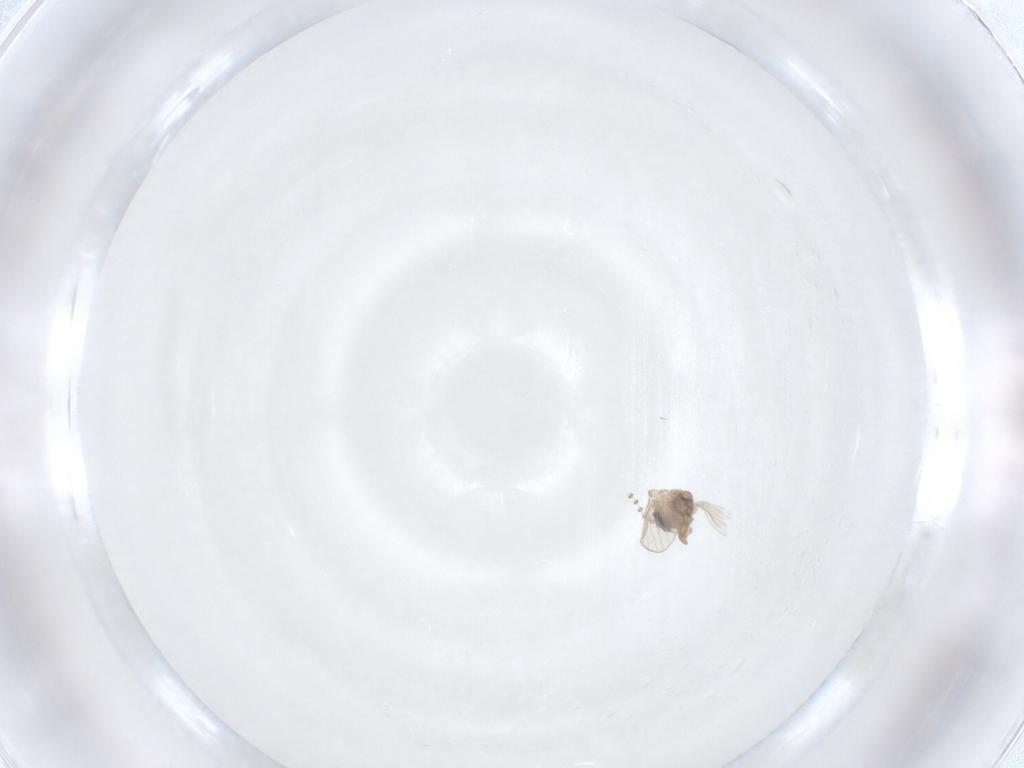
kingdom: Animalia
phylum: Arthropoda
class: Insecta
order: Diptera
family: Psychodidae
